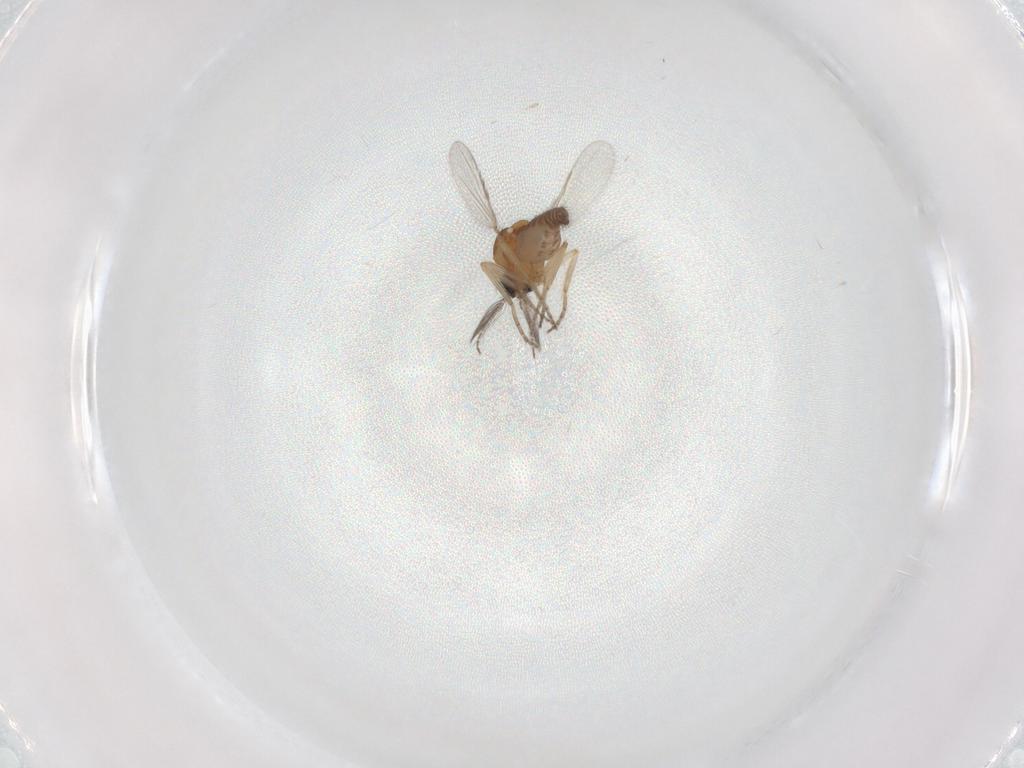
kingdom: Animalia
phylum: Arthropoda
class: Insecta
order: Diptera
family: Ceratopogonidae
